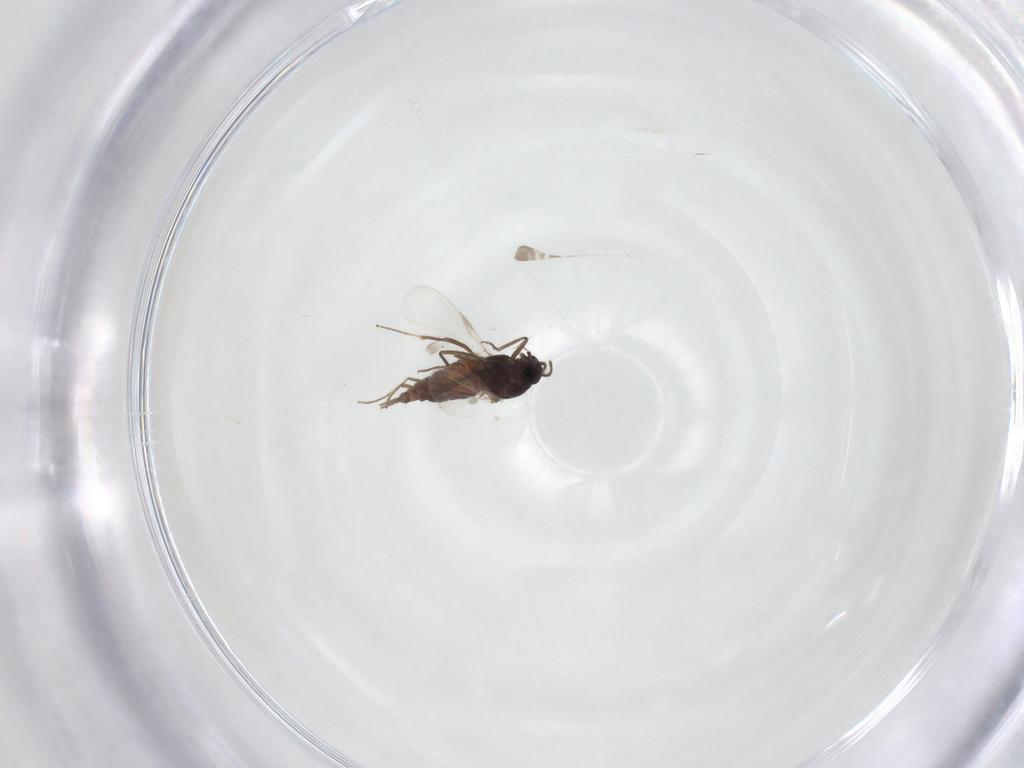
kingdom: Animalia
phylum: Arthropoda
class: Insecta
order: Diptera
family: Ceratopogonidae
